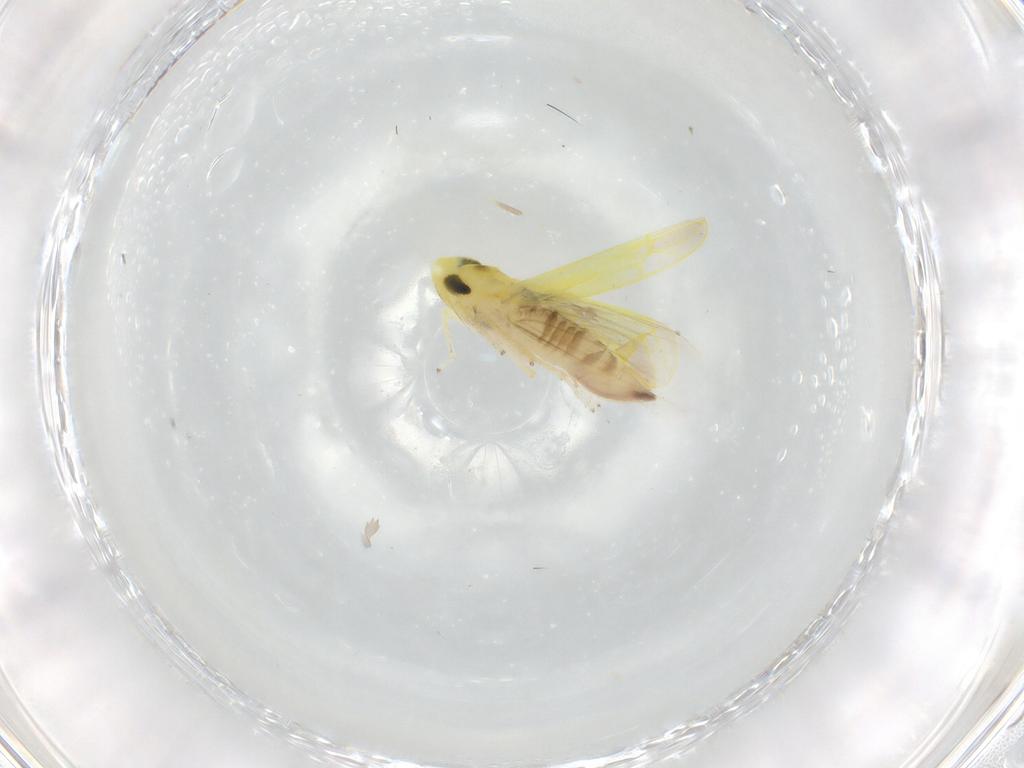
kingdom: Animalia
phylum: Arthropoda
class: Insecta
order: Hemiptera
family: Cicadellidae
